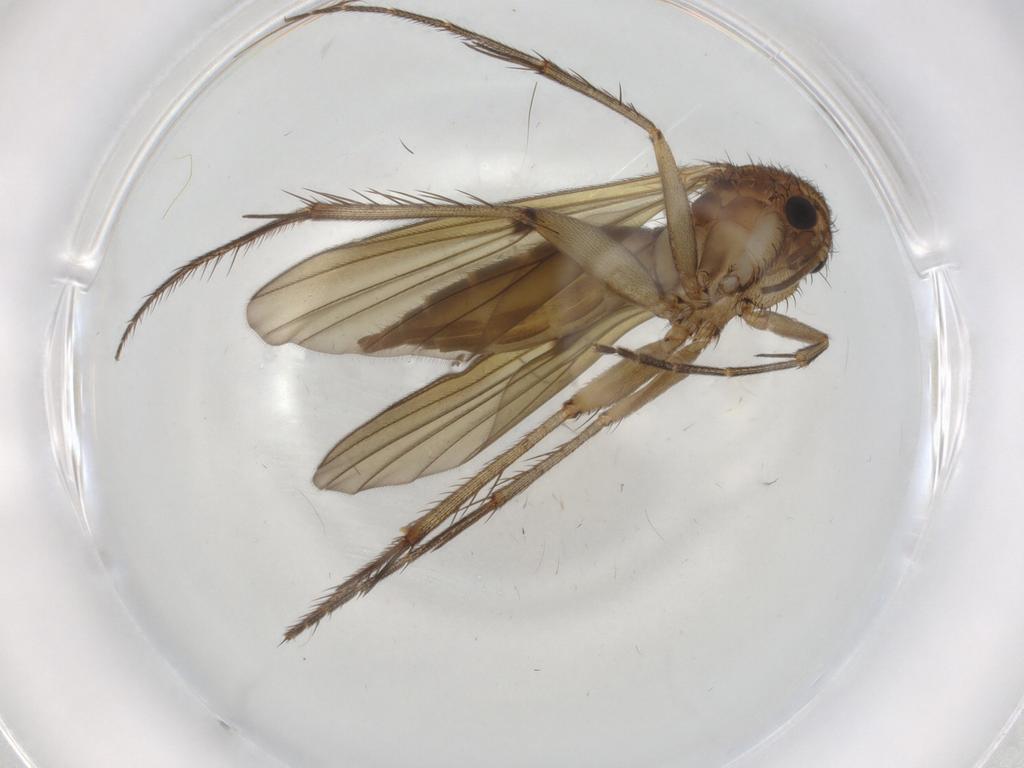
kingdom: Animalia
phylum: Arthropoda
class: Insecta
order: Diptera
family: Mycetophilidae
